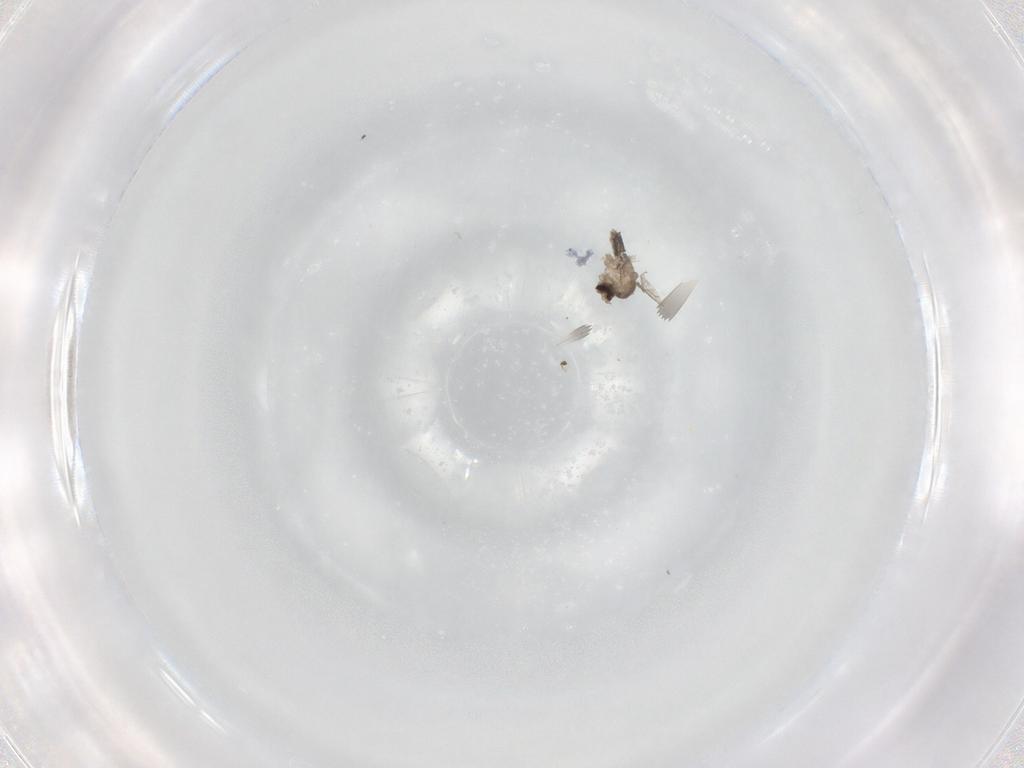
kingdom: Animalia
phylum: Arthropoda
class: Insecta
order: Diptera
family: Cecidomyiidae
